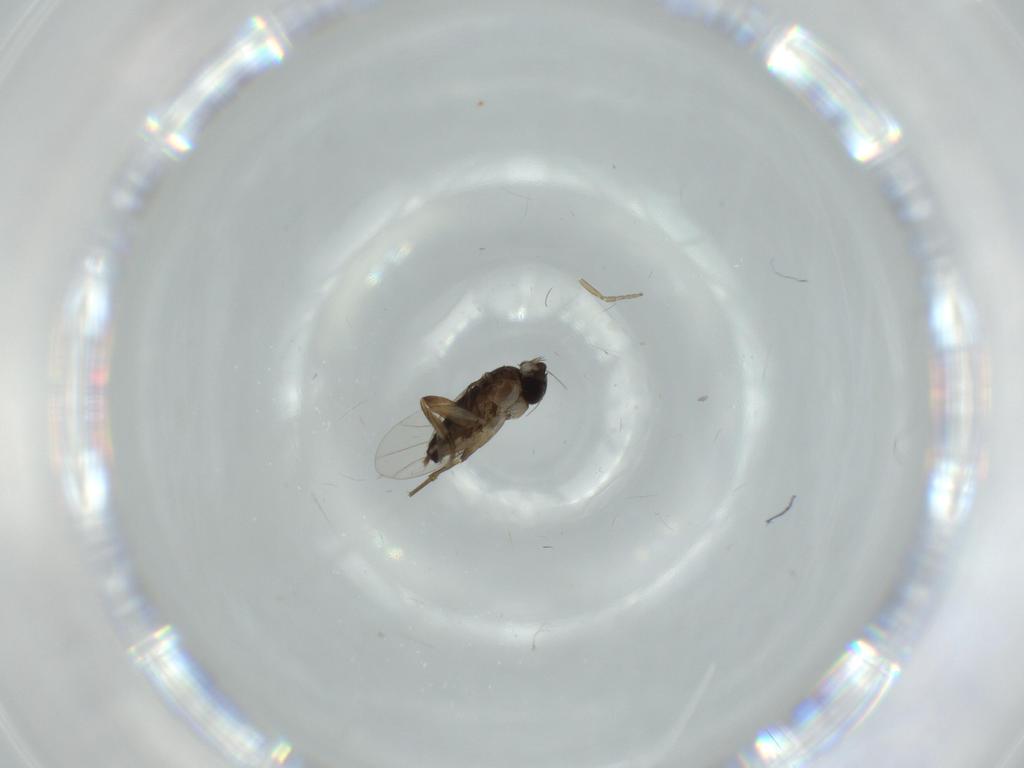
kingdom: Animalia
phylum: Arthropoda
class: Insecta
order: Diptera
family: Phoridae
